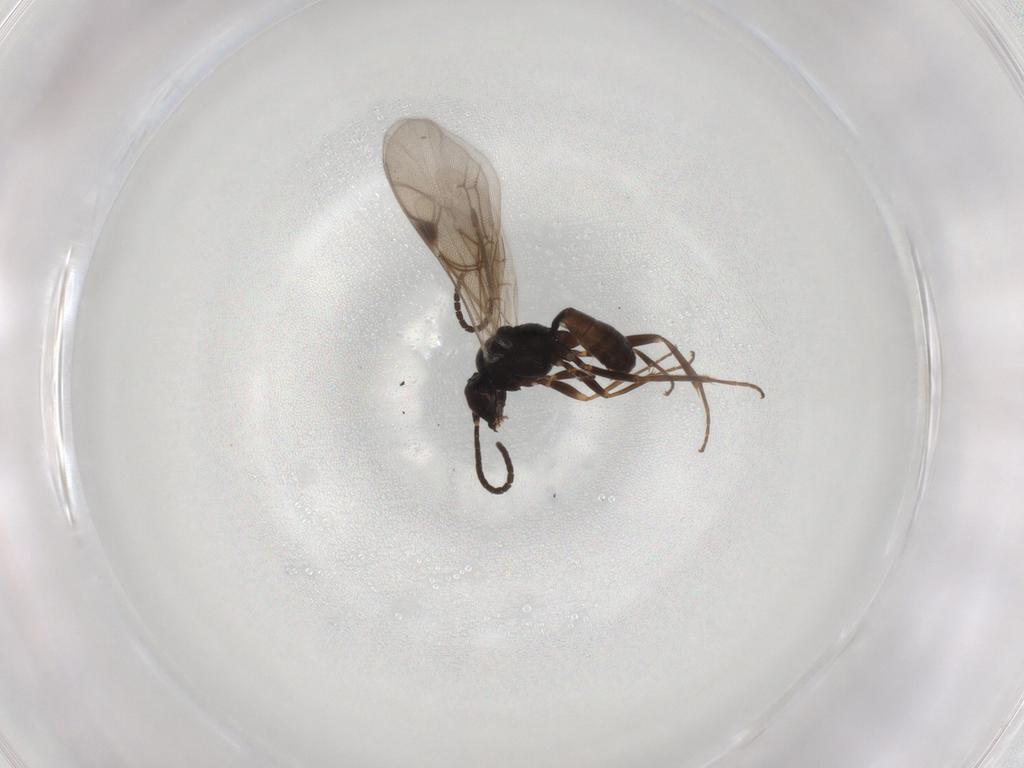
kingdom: Animalia
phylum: Arthropoda
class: Insecta
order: Hymenoptera
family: Ichneumonidae
